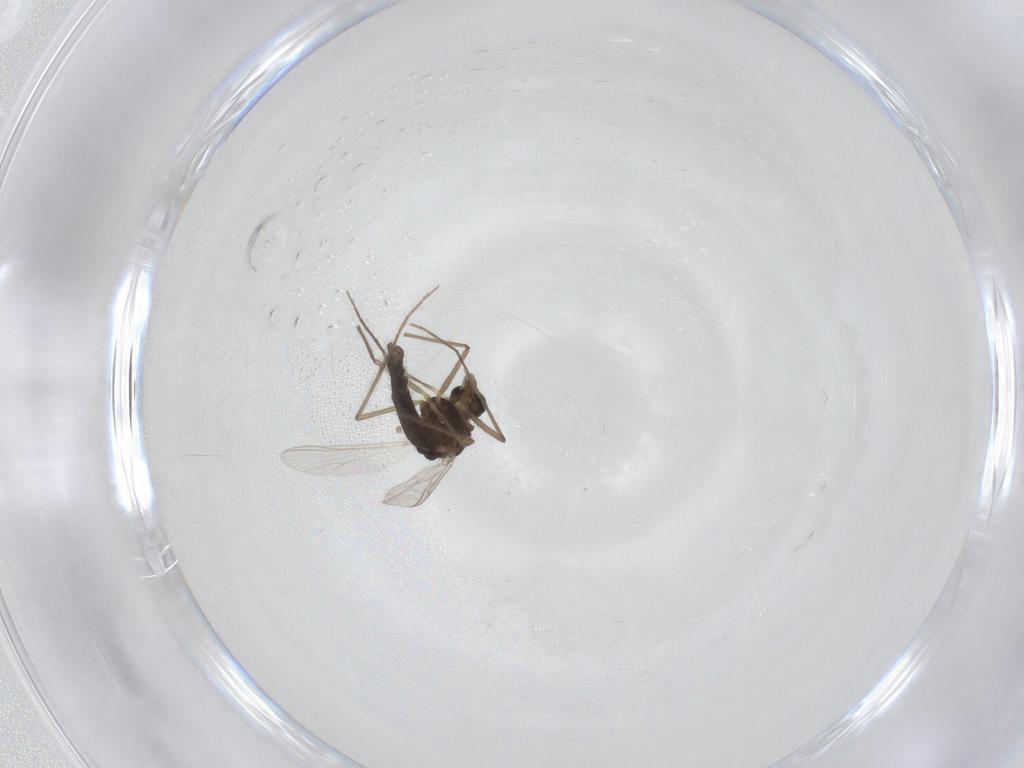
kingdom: Animalia
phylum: Arthropoda
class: Insecta
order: Diptera
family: Chironomidae
